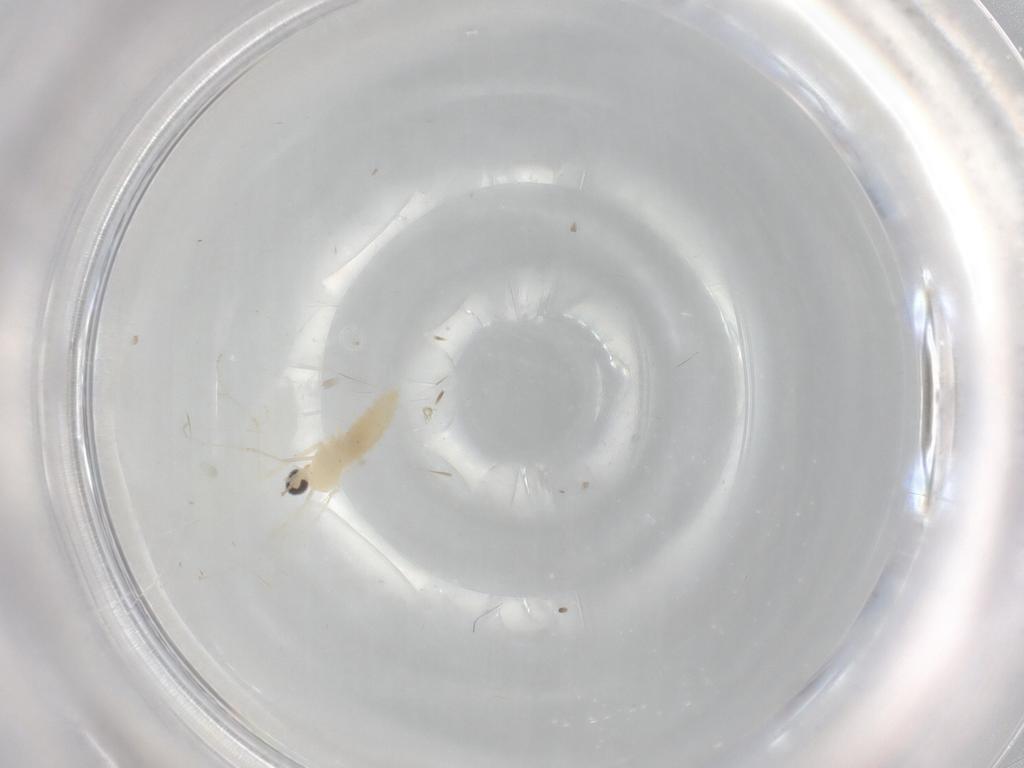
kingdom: Animalia
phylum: Arthropoda
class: Insecta
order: Diptera
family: Cecidomyiidae
